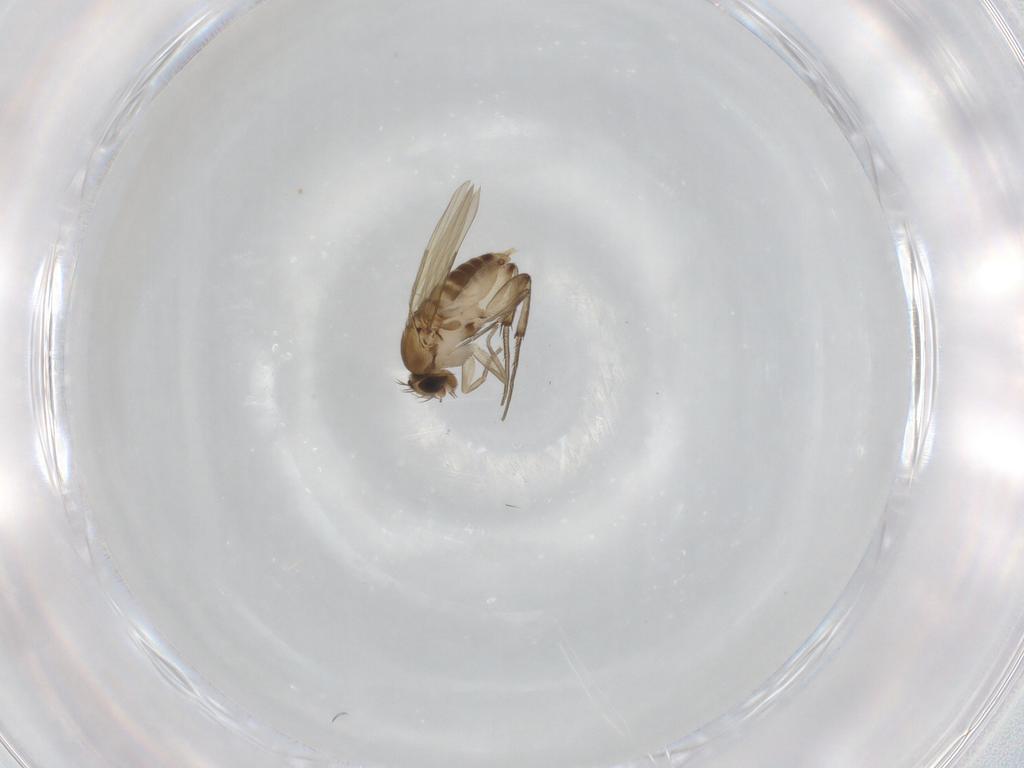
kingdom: Animalia
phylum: Arthropoda
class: Insecta
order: Diptera
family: Phoridae
